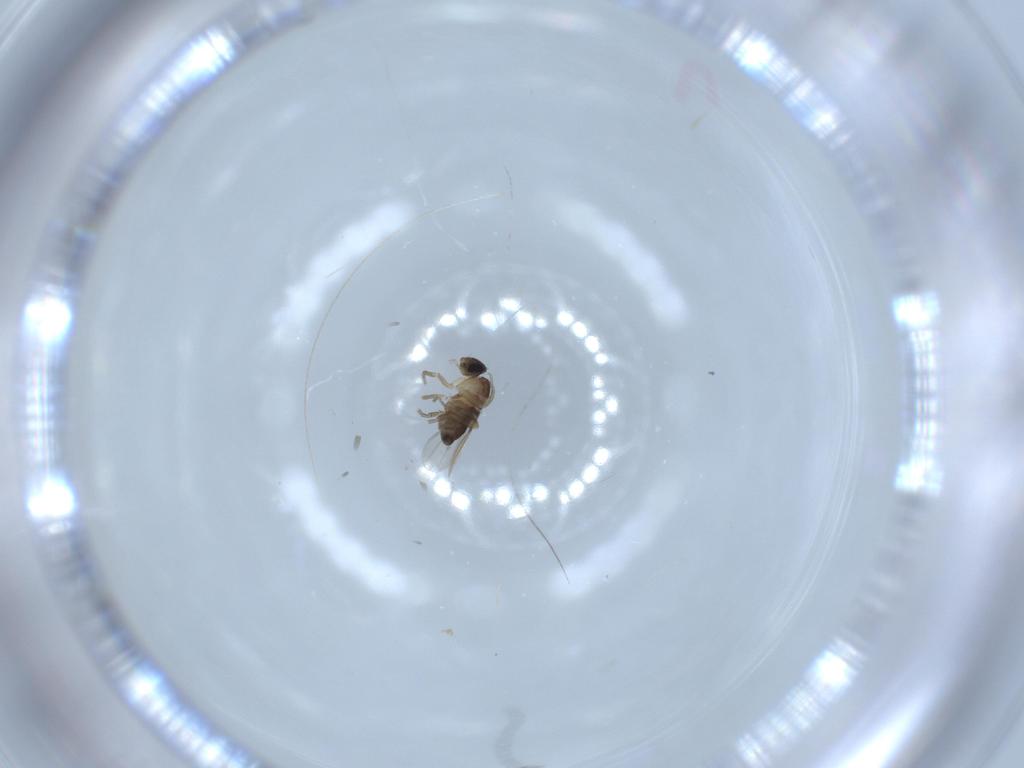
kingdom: Animalia
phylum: Arthropoda
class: Insecta
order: Diptera
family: Phoridae
